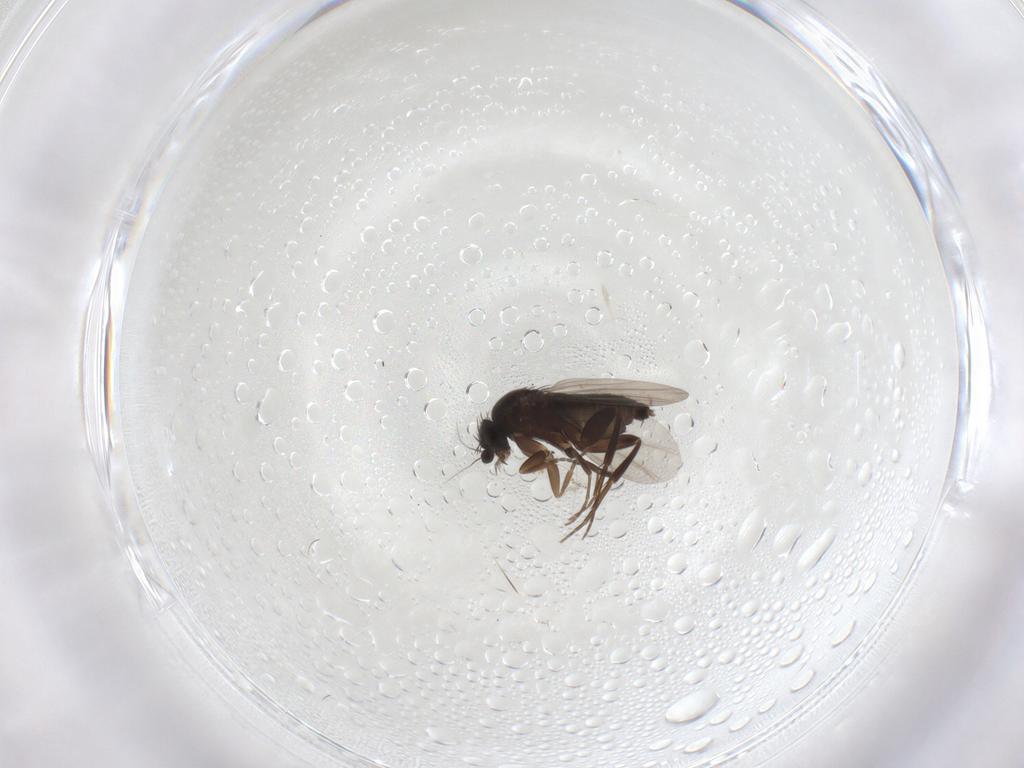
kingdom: Animalia
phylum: Arthropoda
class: Insecta
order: Diptera
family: Phoridae
